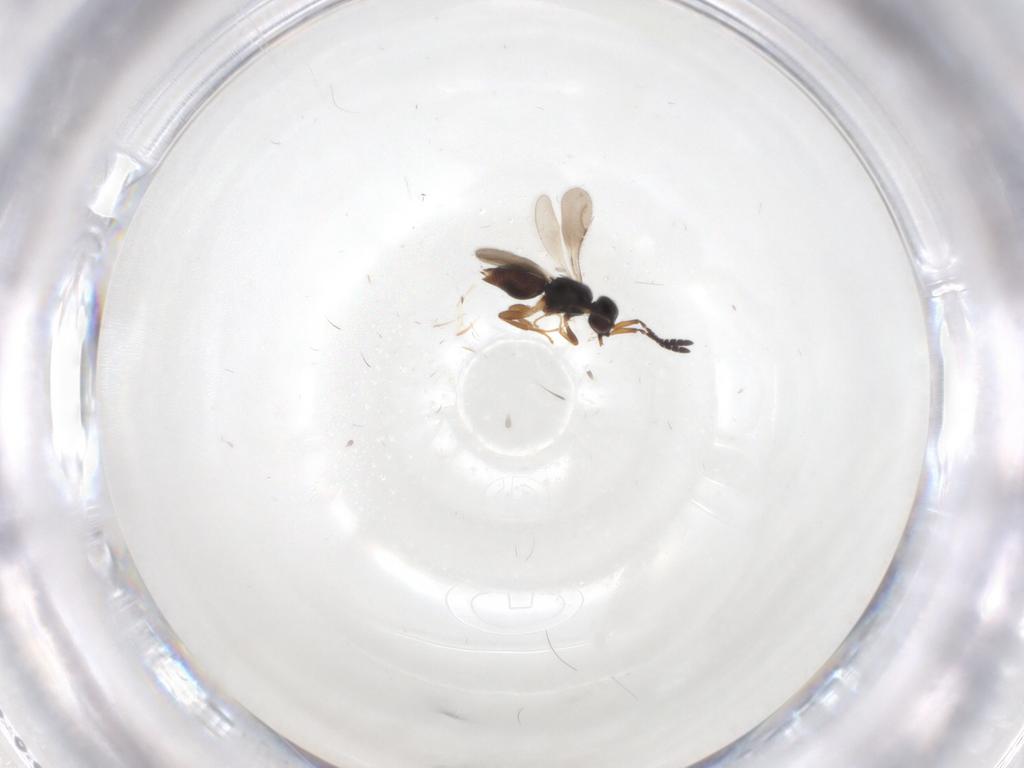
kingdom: Animalia
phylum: Arthropoda
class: Insecta
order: Hymenoptera
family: Ceraphronidae
